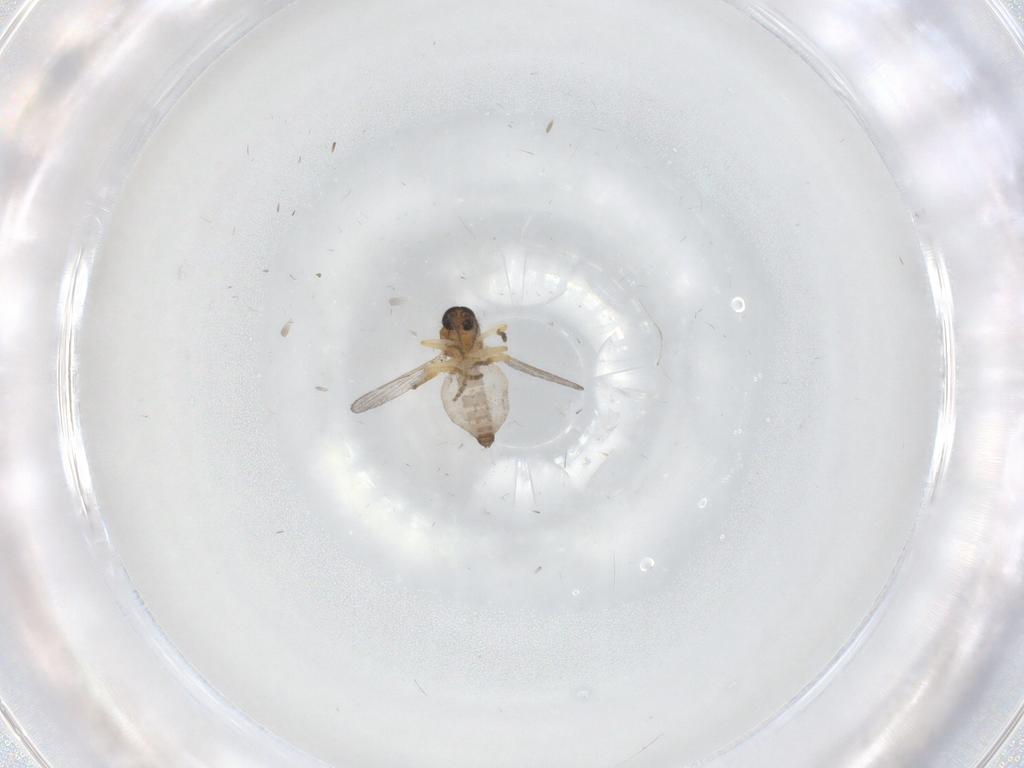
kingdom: Animalia
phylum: Arthropoda
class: Insecta
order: Diptera
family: Ceratopogonidae
